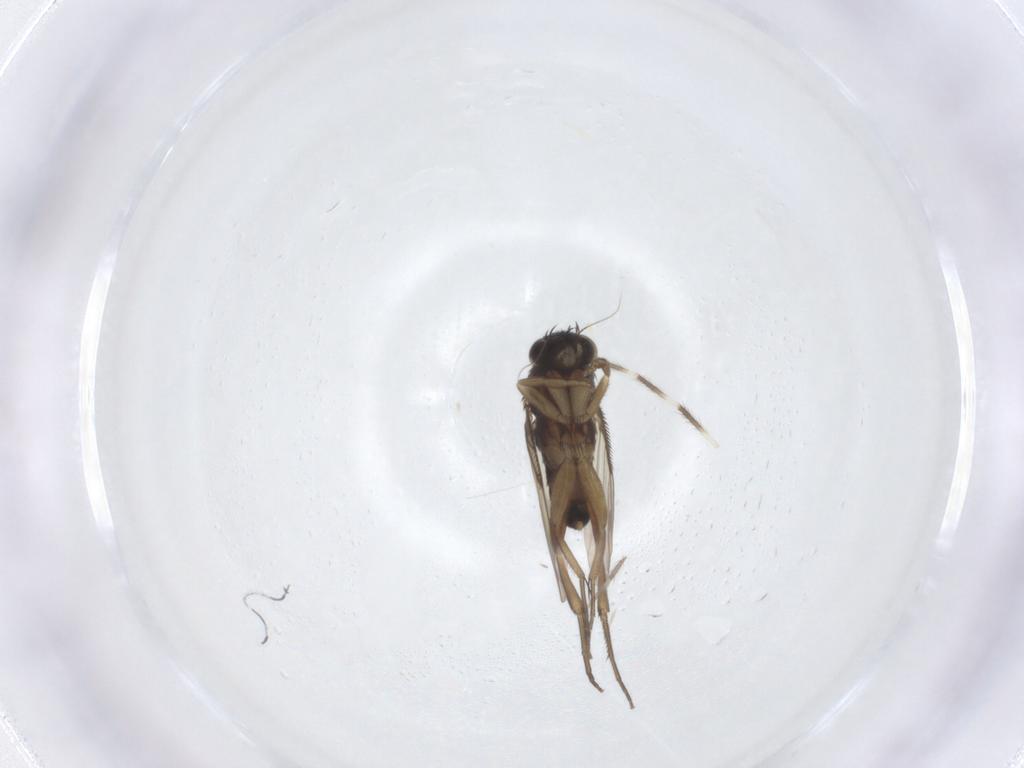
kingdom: Animalia
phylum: Arthropoda
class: Insecta
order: Diptera
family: Phoridae
